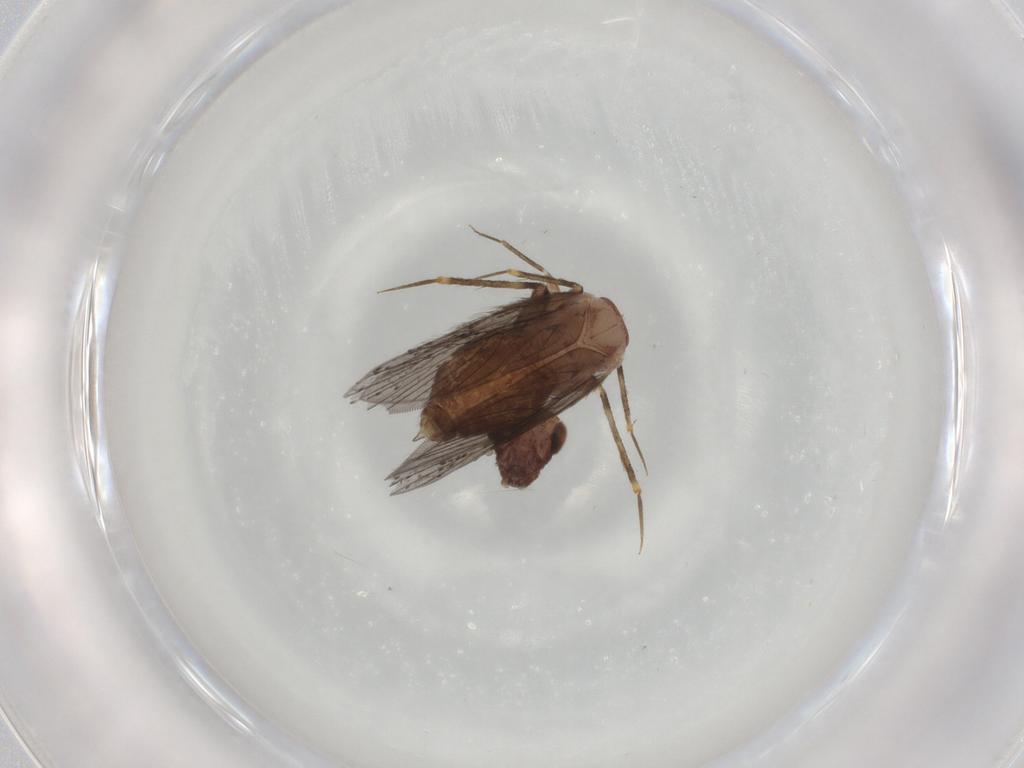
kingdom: Animalia
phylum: Arthropoda
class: Insecta
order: Psocodea
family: Lepidopsocidae
